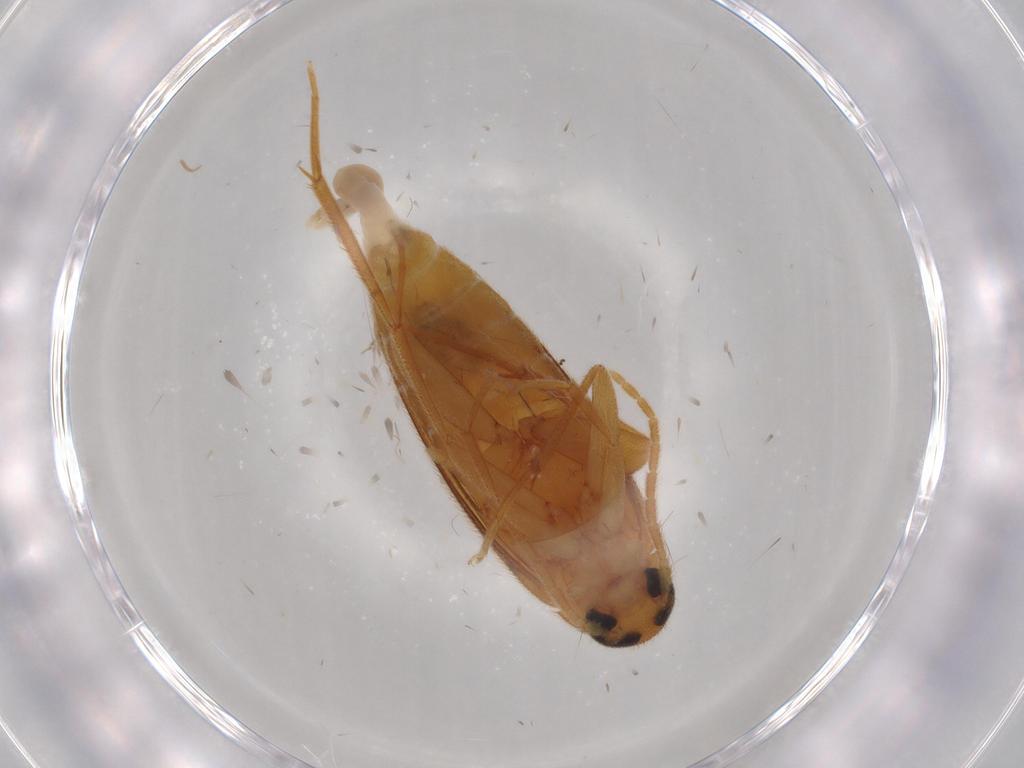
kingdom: Animalia
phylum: Arthropoda
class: Insecta
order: Coleoptera
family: Scraptiidae
